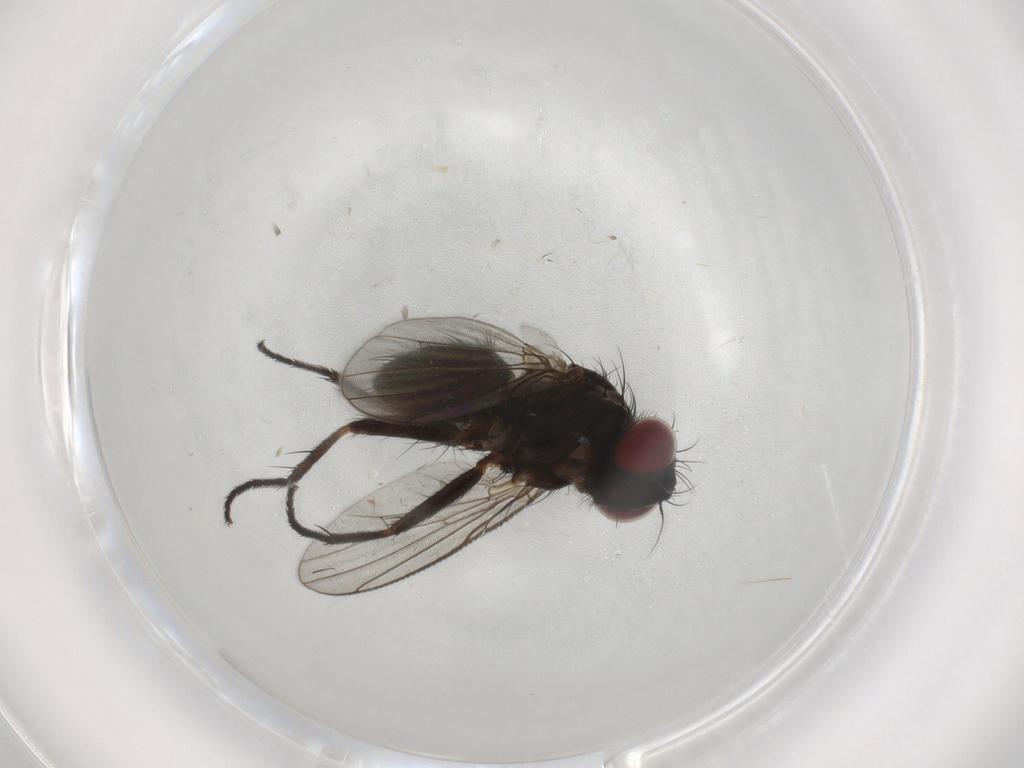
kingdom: Animalia
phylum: Arthropoda
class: Insecta
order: Diptera
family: Muscidae
